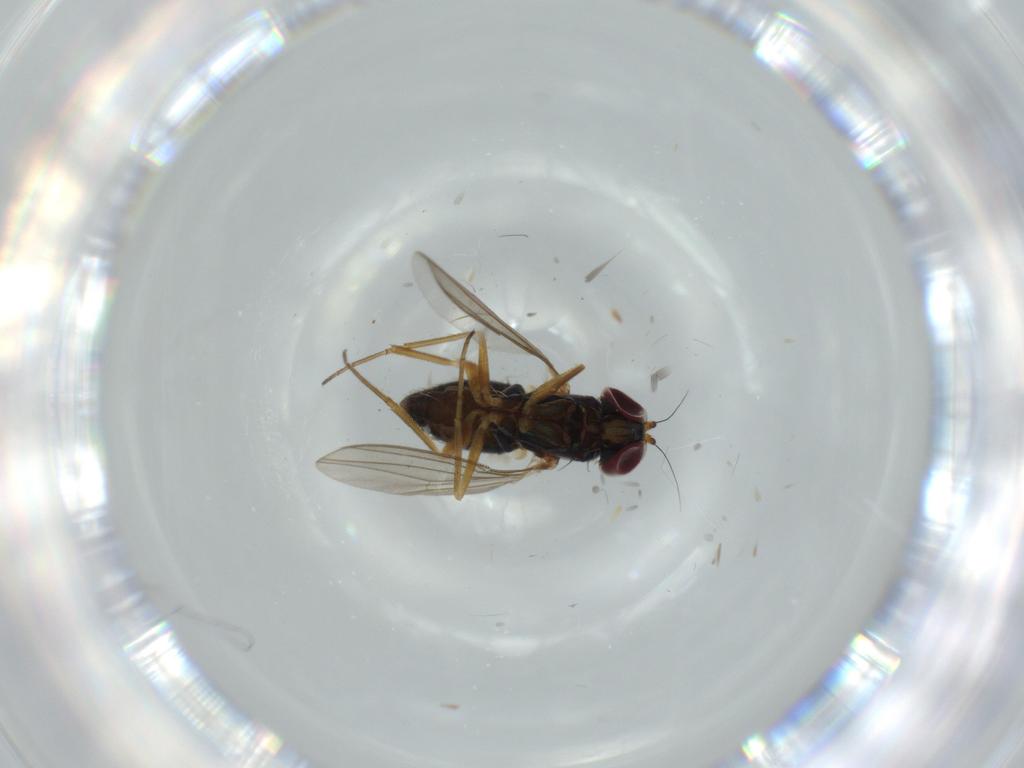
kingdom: Animalia
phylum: Arthropoda
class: Insecta
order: Diptera
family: Dolichopodidae
